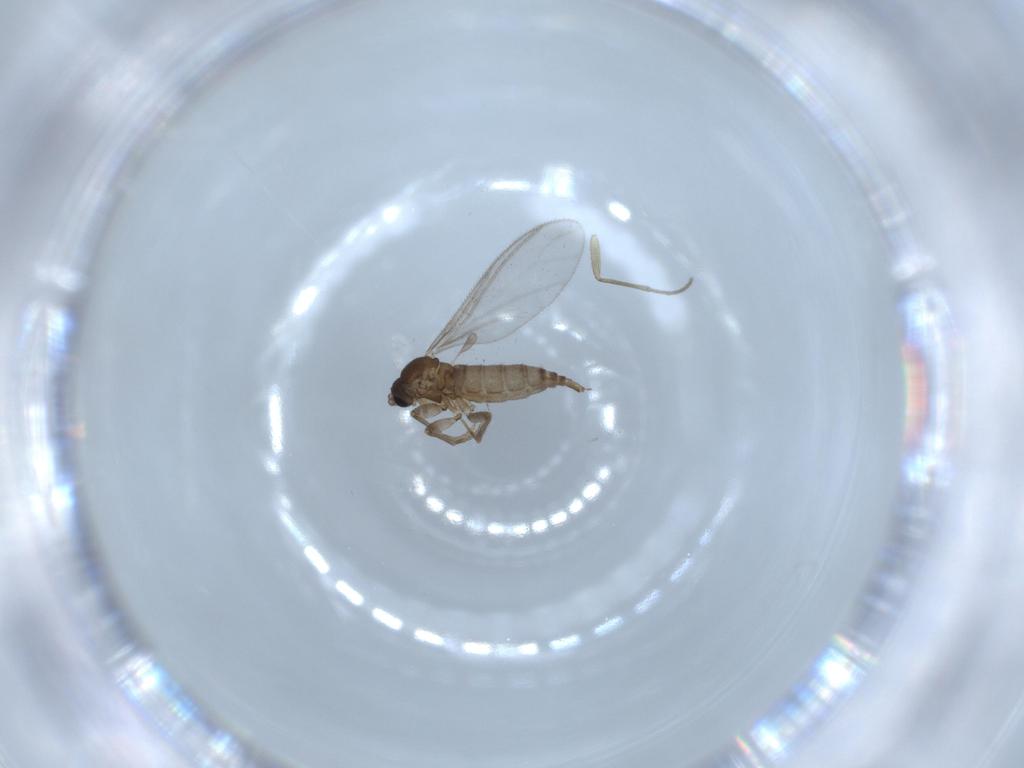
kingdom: Animalia
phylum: Arthropoda
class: Insecta
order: Diptera
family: Sciaridae
